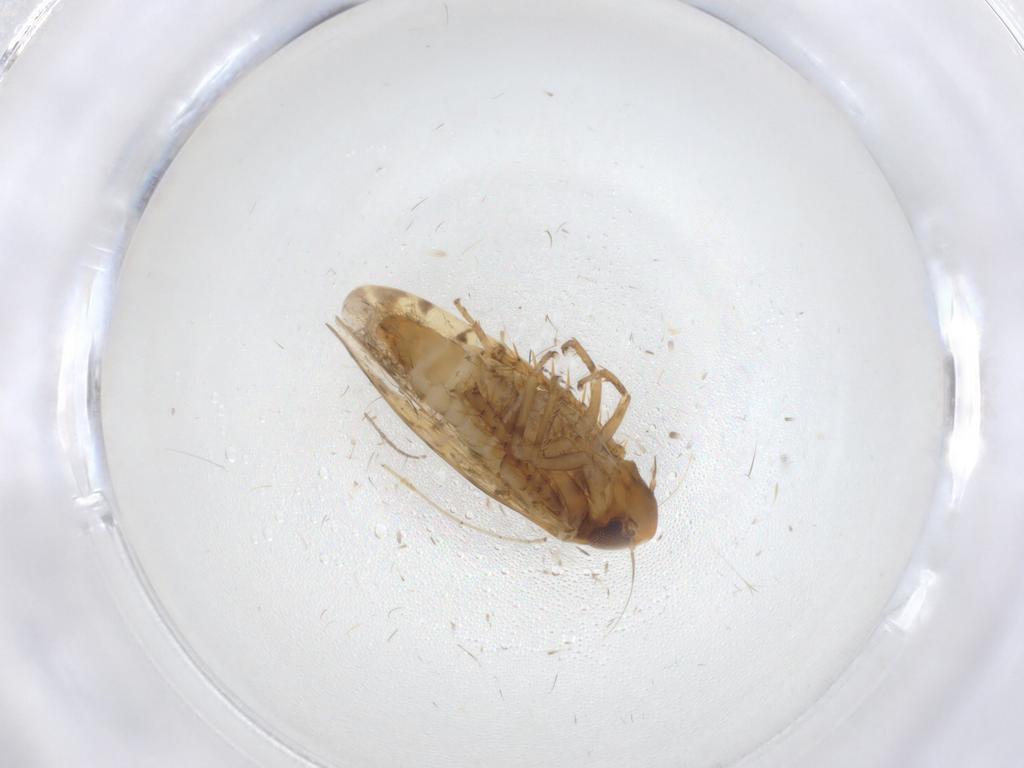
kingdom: Animalia
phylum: Arthropoda
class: Insecta
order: Hemiptera
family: Cicadellidae
